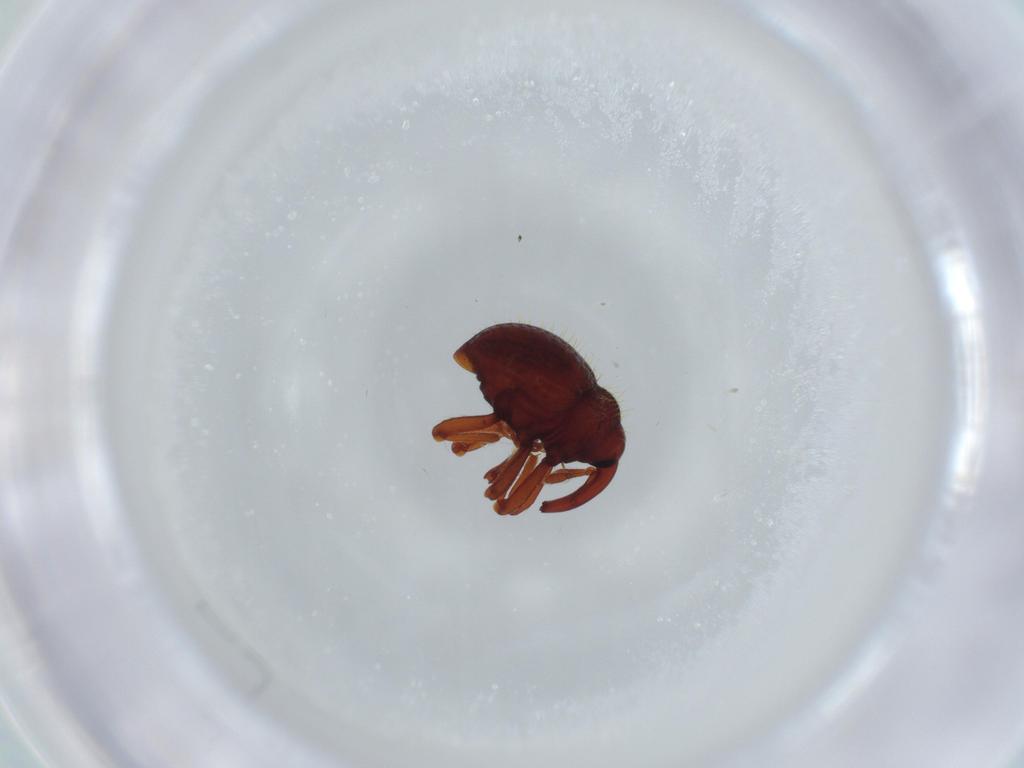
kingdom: Animalia
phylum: Arthropoda
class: Insecta
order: Coleoptera
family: Curculionidae
